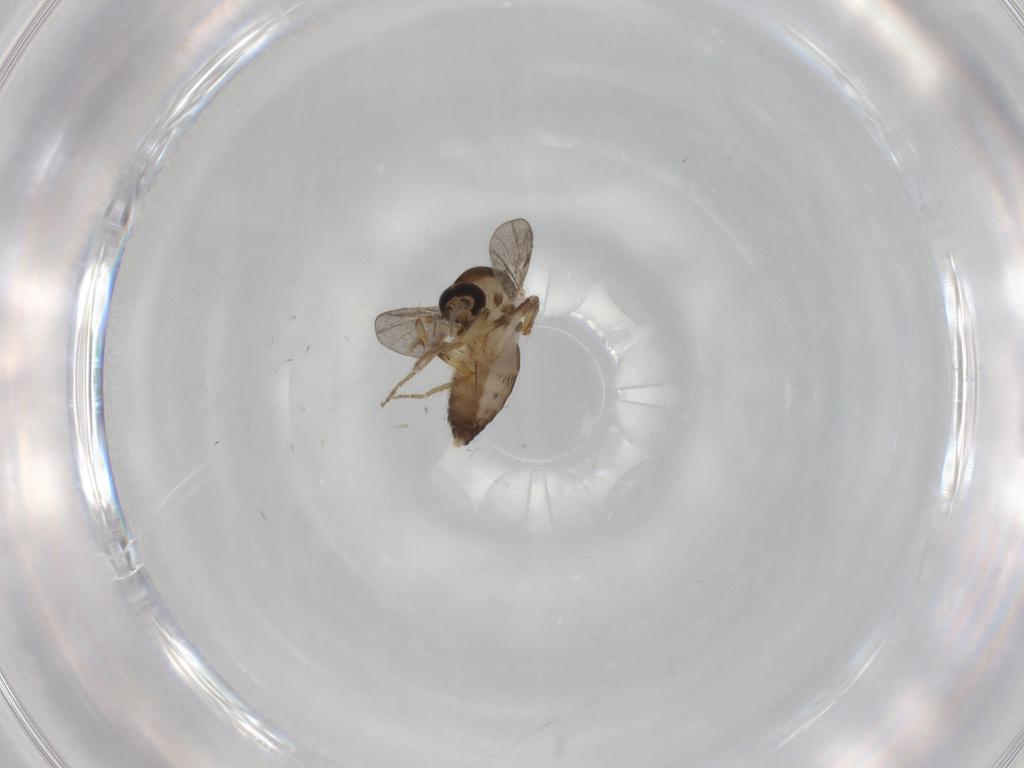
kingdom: Animalia
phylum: Arthropoda
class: Insecta
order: Diptera
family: Ceratopogonidae
